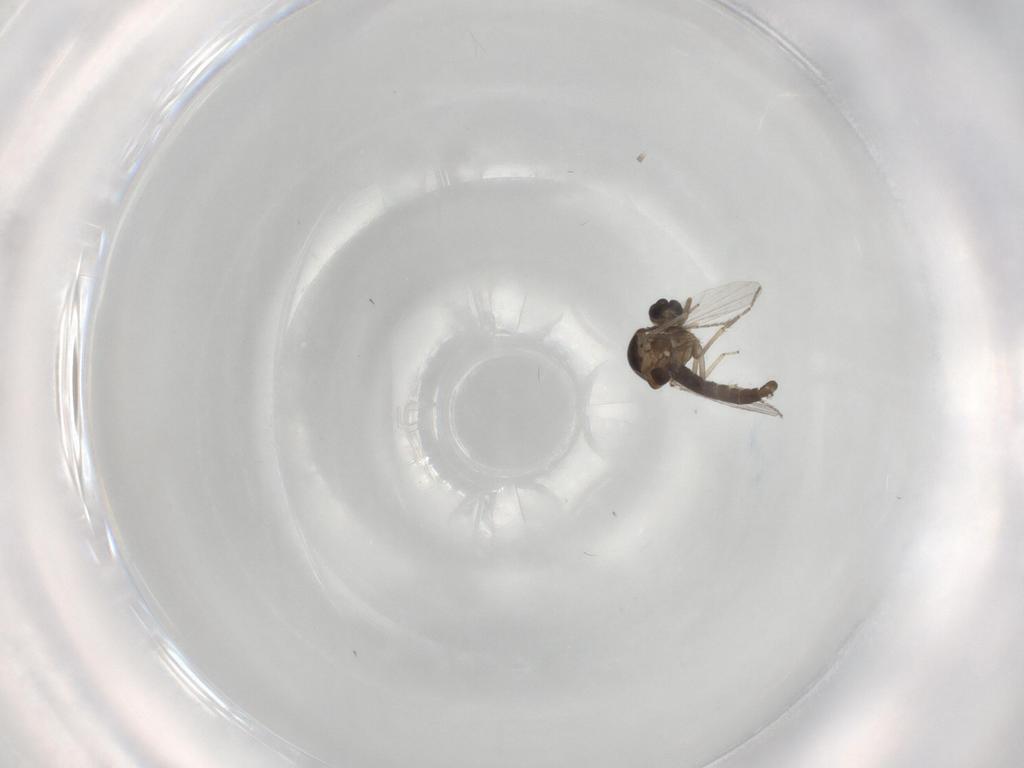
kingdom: Animalia
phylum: Arthropoda
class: Insecta
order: Diptera
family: Ceratopogonidae
